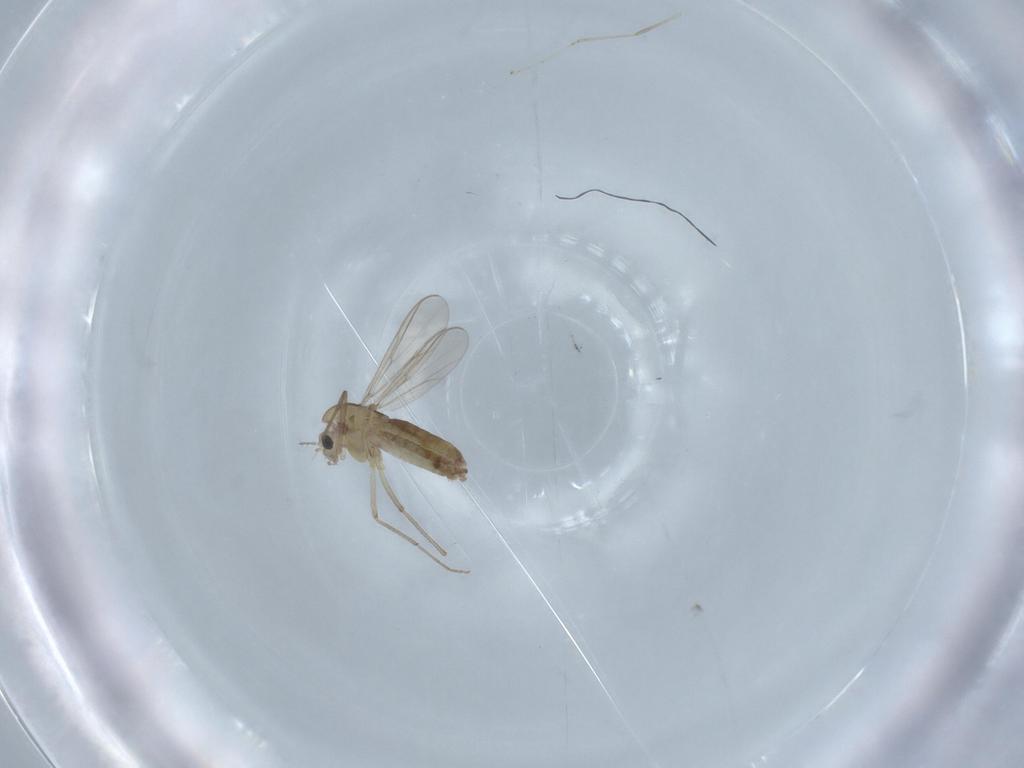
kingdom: Animalia
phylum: Arthropoda
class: Insecta
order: Diptera
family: Chironomidae
